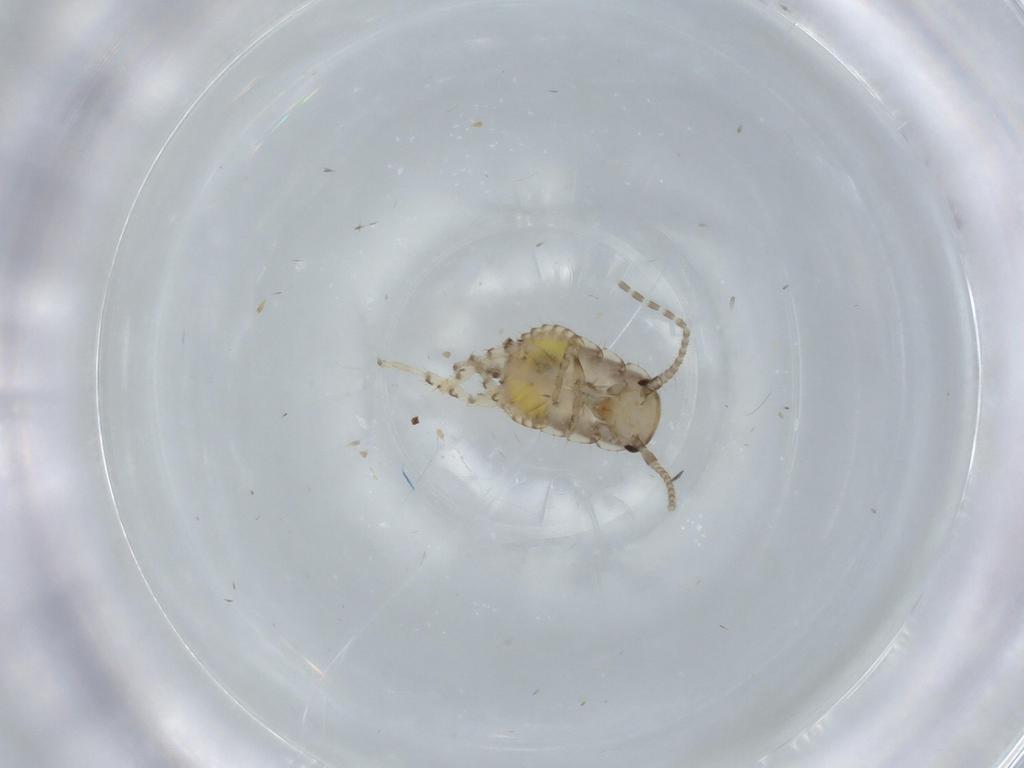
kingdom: Animalia
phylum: Arthropoda
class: Insecta
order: Blattodea
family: Ectobiidae
